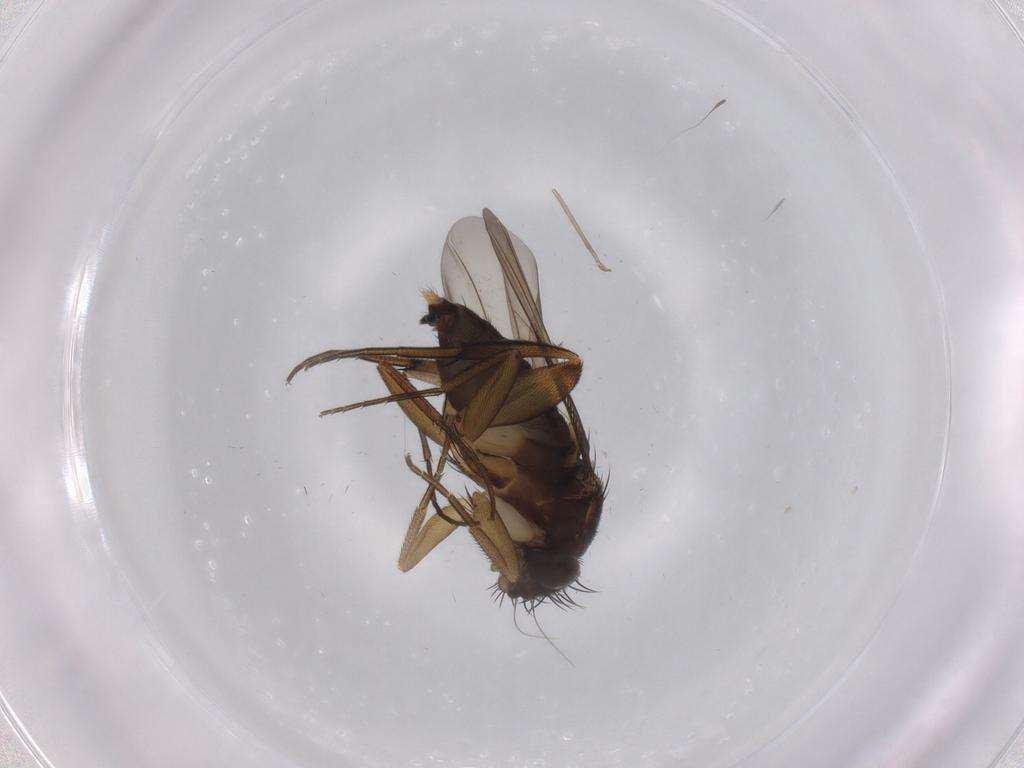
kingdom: Animalia
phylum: Arthropoda
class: Insecta
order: Diptera
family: Phoridae
